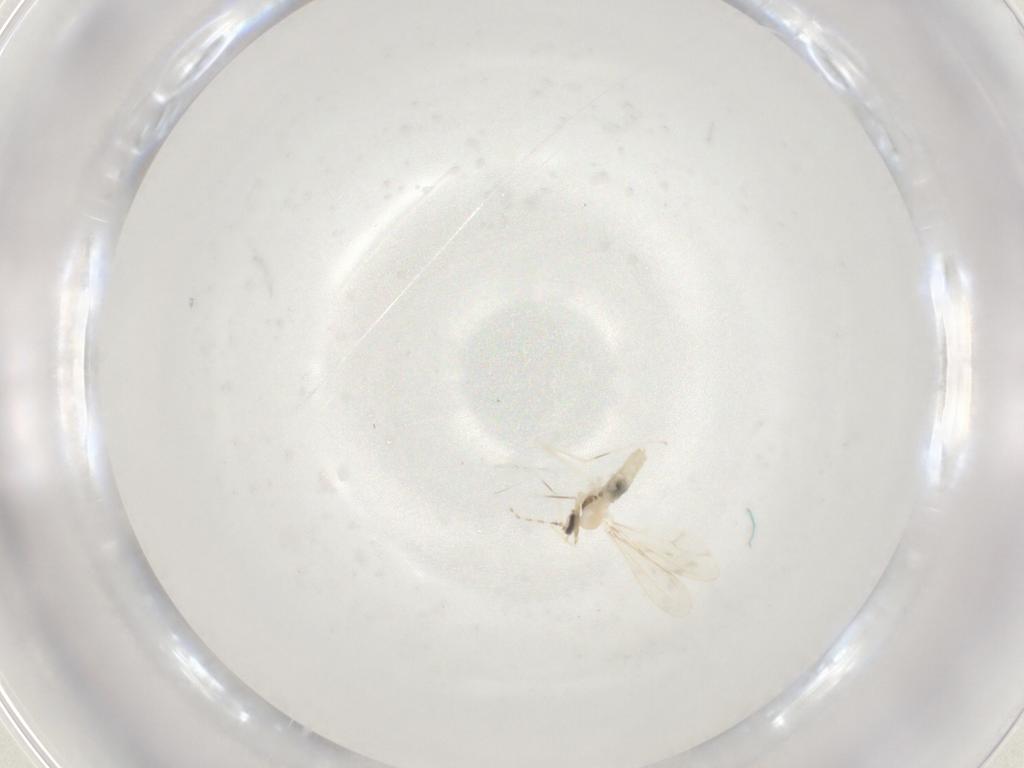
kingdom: Animalia
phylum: Arthropoda
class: Insecta
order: Diptera
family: Cecidomyiidae
